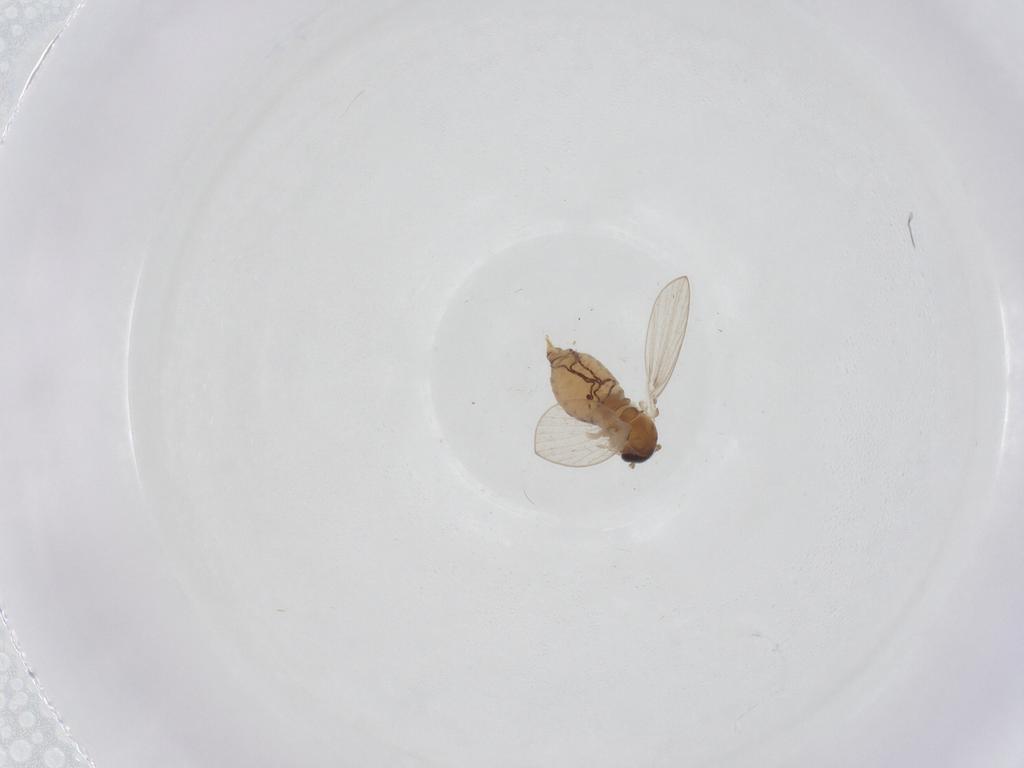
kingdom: Animalia
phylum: Arthropoda
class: Insecta
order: Diptera
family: Psychodidae
